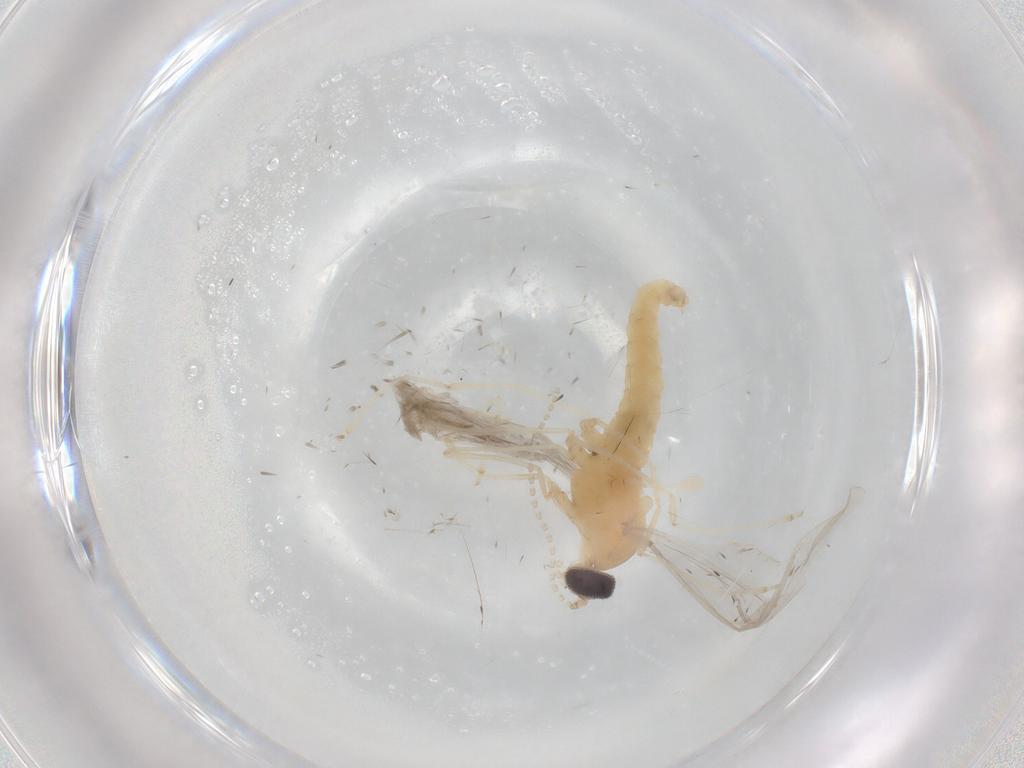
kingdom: Animalia
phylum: Arthropoda
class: Insecta
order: Diptera
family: Cecidomyiidae
